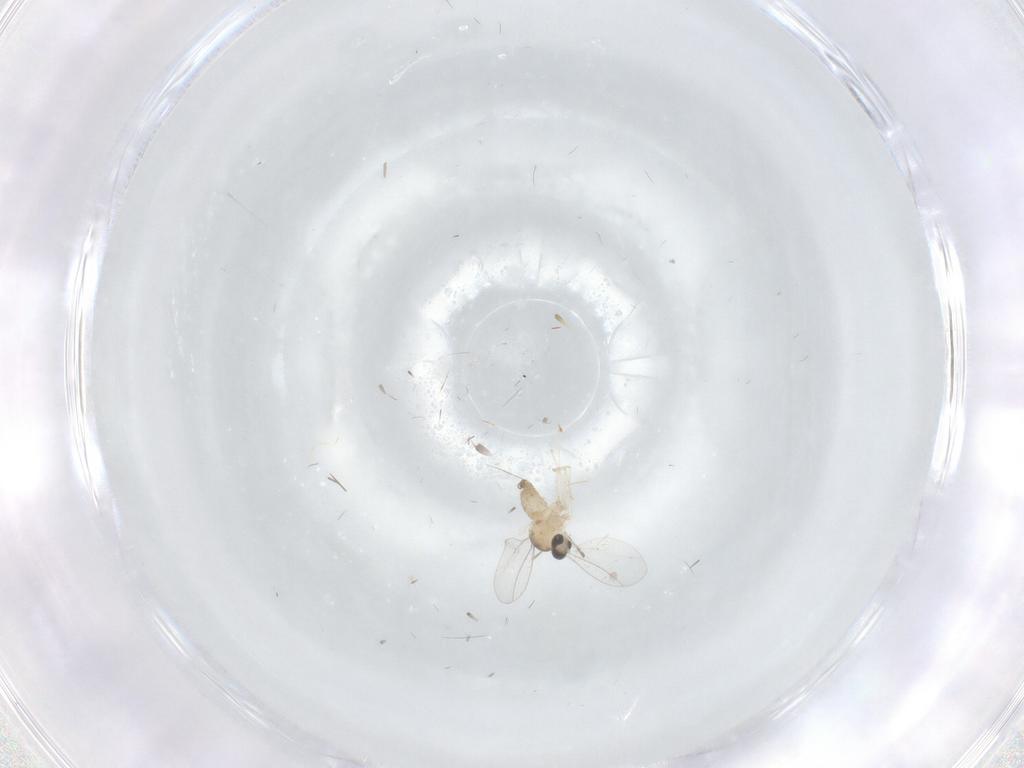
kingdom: Animalia
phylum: Arthropoda
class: Insecta
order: Diptera
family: Cecidomyiidae
